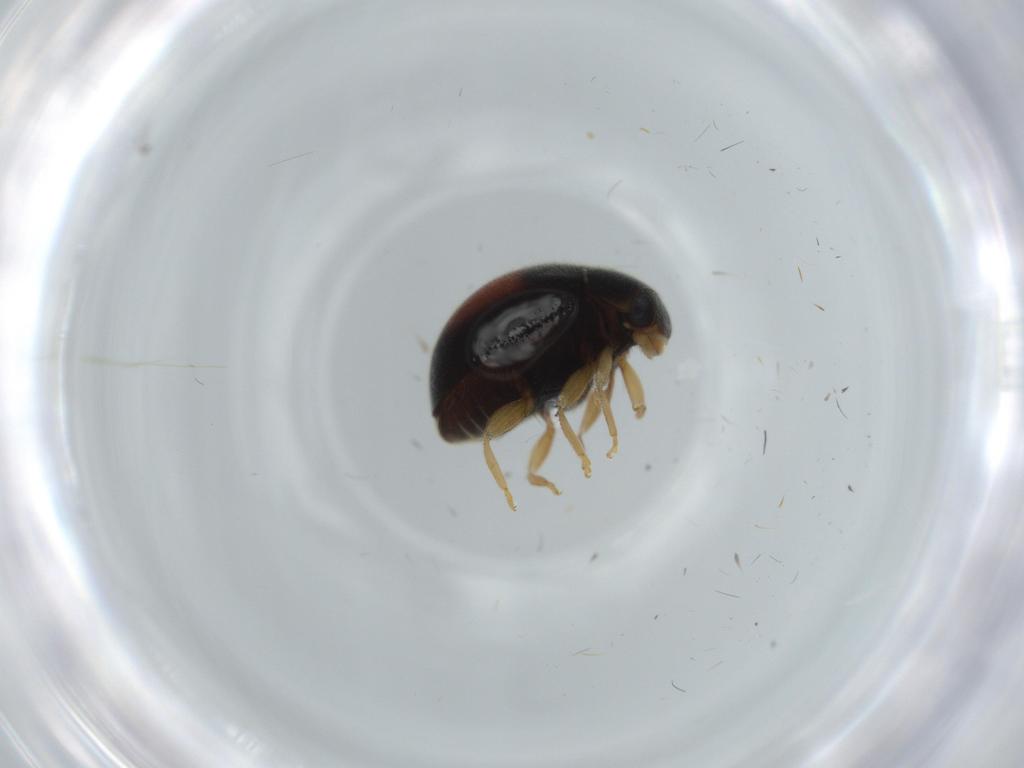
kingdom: Animalia
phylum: Arthropoda
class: Insecta
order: Coleoptera
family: Coccinellidae
